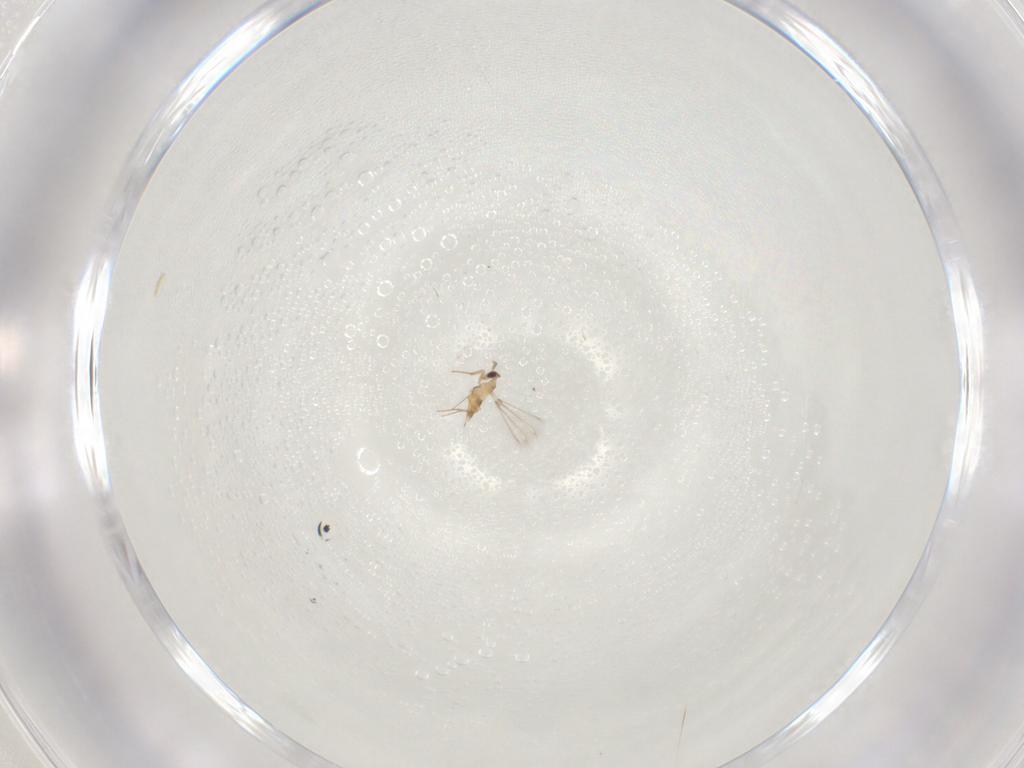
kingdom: Animalia
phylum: Arthropoda
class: Insecta
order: Hymenoptera
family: Mymaridae
